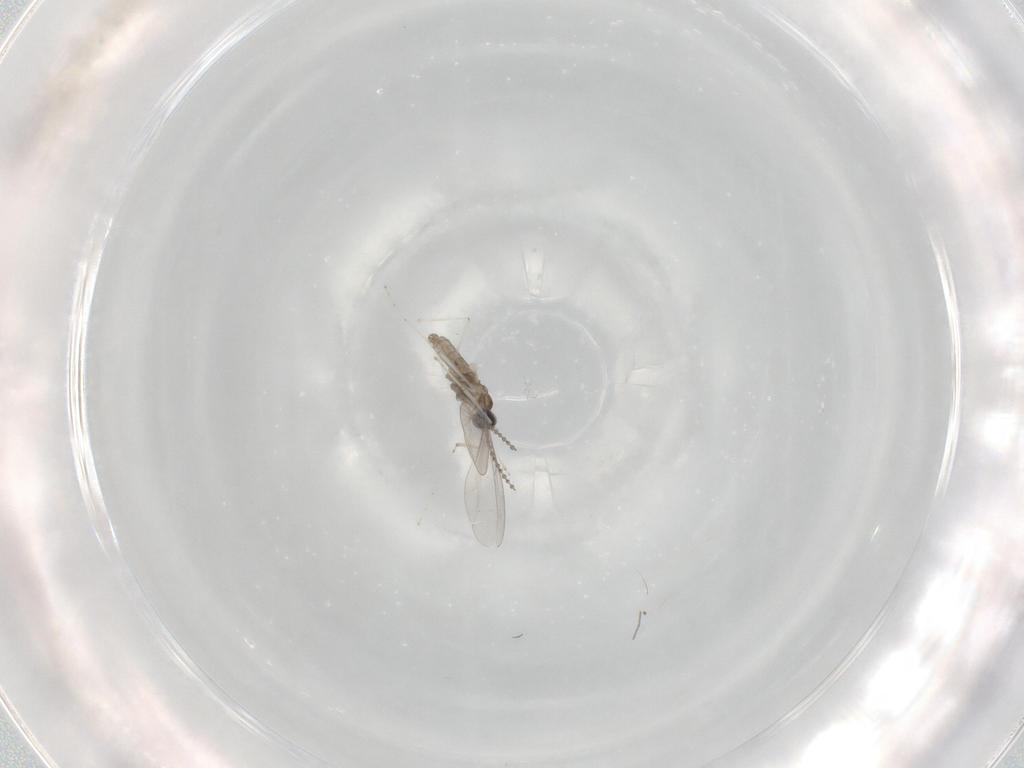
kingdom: Animalia
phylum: Arthropoda
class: Insecta
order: Diptera
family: Cecidomyiidae
